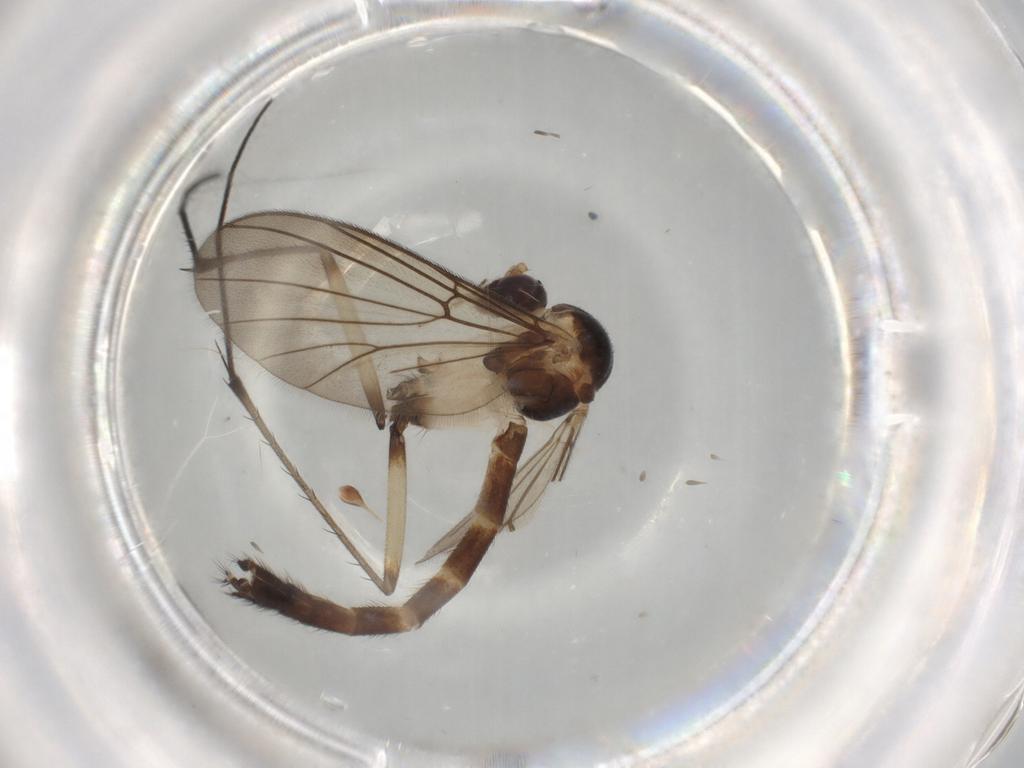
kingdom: Animalia
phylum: Arthropoda
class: Insecta
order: Diptera
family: Mycetophilidae
